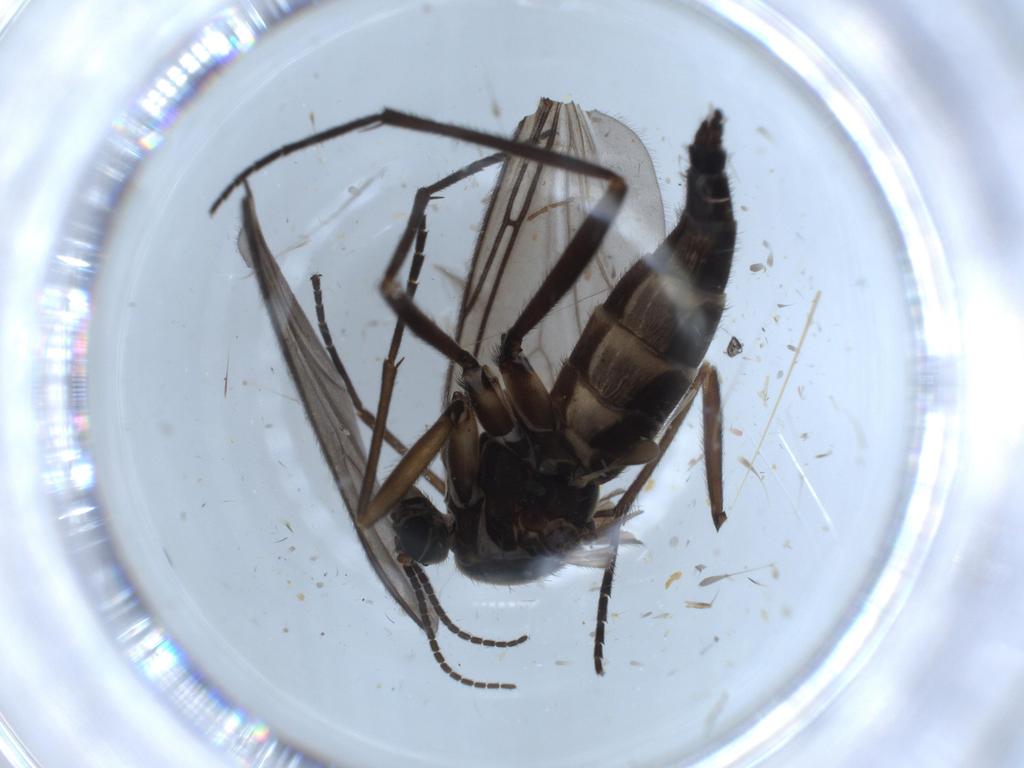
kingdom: Animalia
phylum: Arthropoda
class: Insecta
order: Diptera
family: Sciaridae
